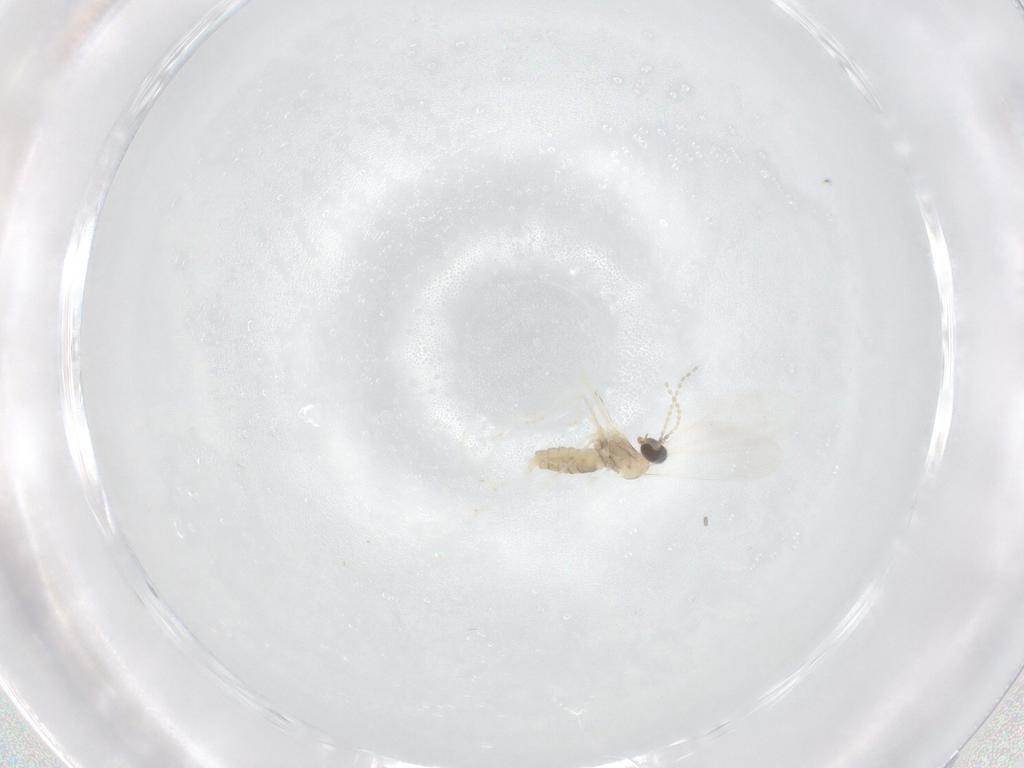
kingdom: Animalia
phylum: Arthropoda
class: Insecta
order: Diptera
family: Cecidomyiidae
